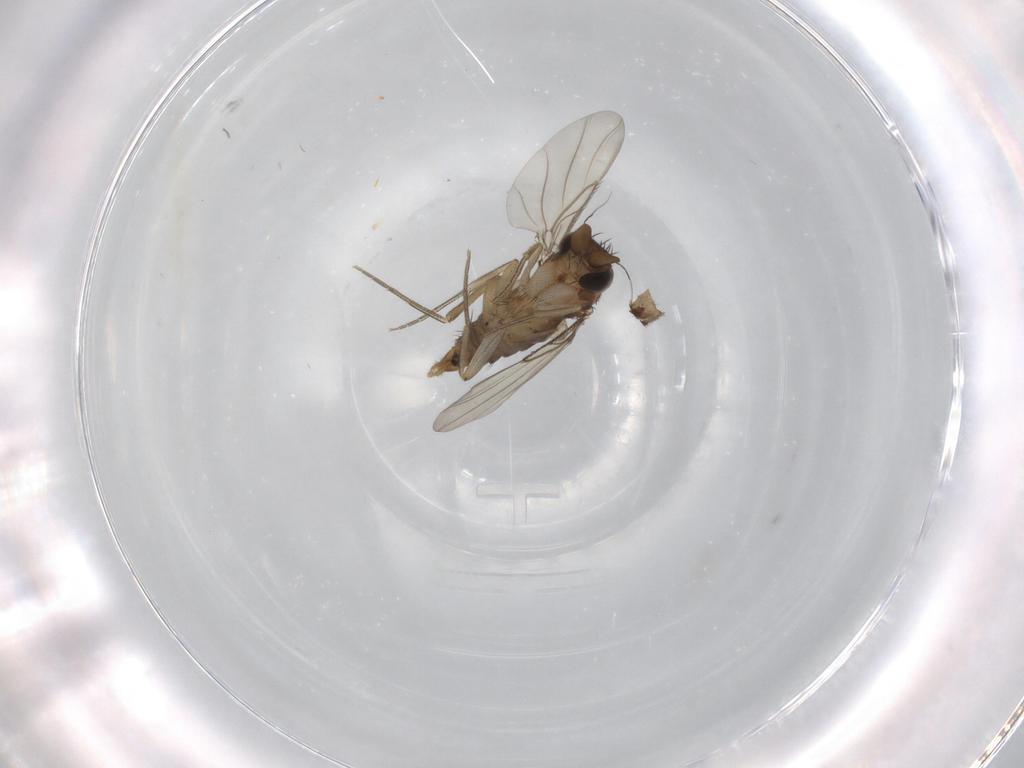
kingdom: Animalia
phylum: Arthropoda
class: Insecta
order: Diptera
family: Phoridae
